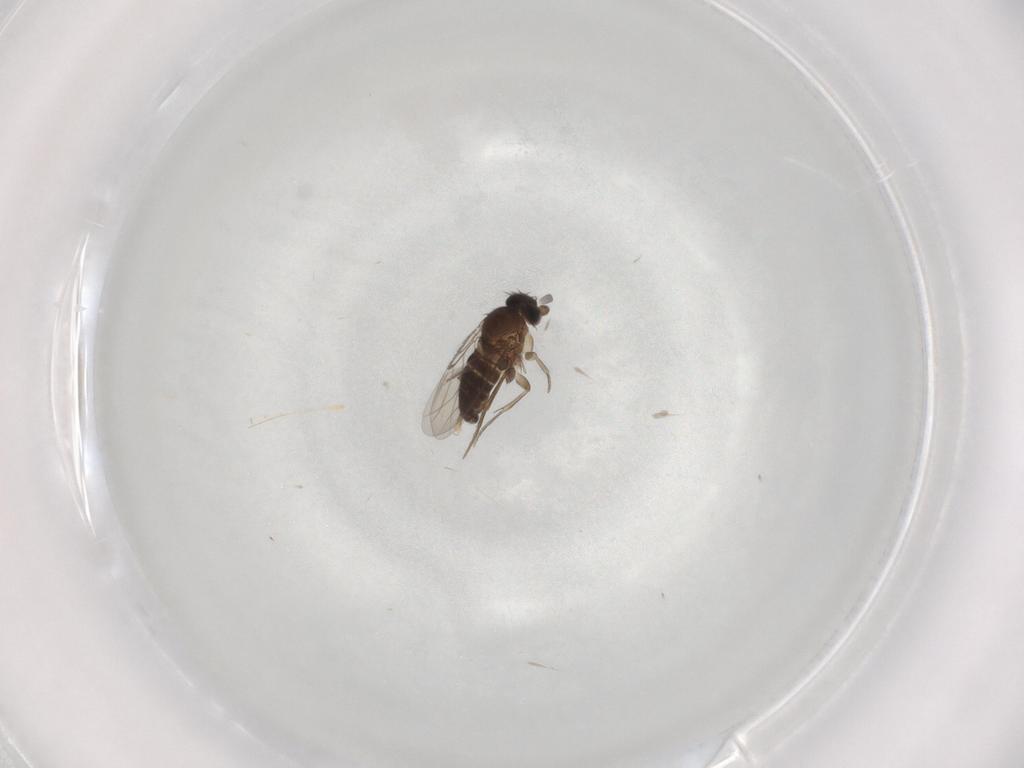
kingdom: Animalia
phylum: Arthropoda
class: Insecta
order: Diptera
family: Phoridae
